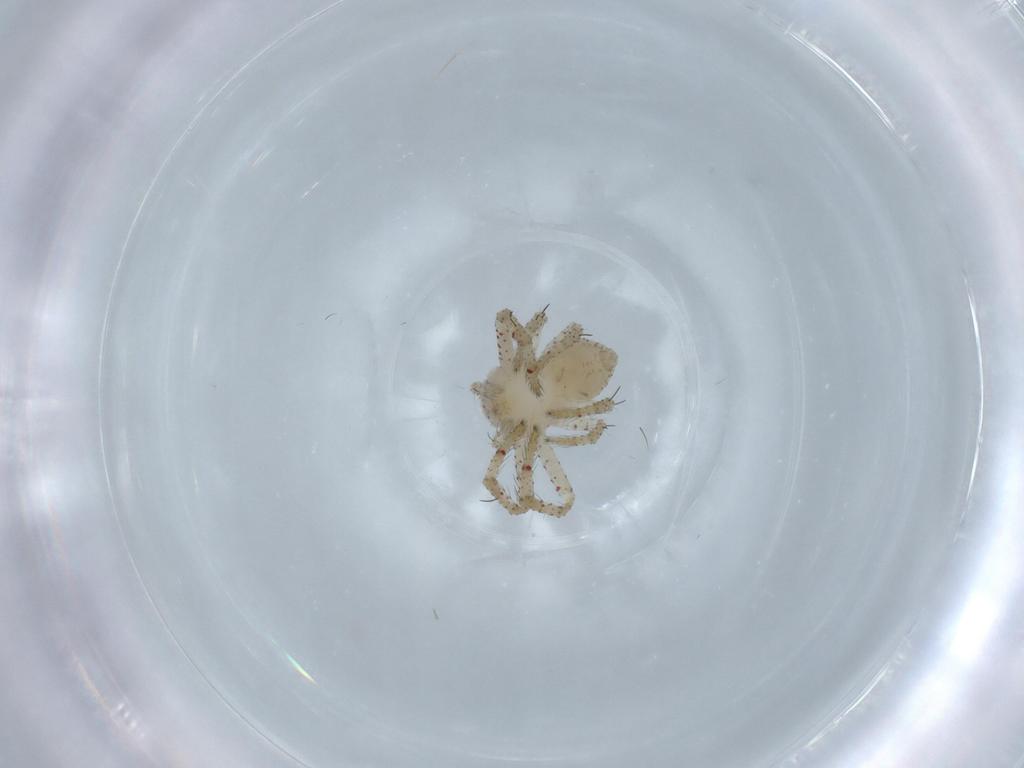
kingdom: Animalia
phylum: Arthropoda
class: Arachnida
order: Araneae
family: Thomisidae
